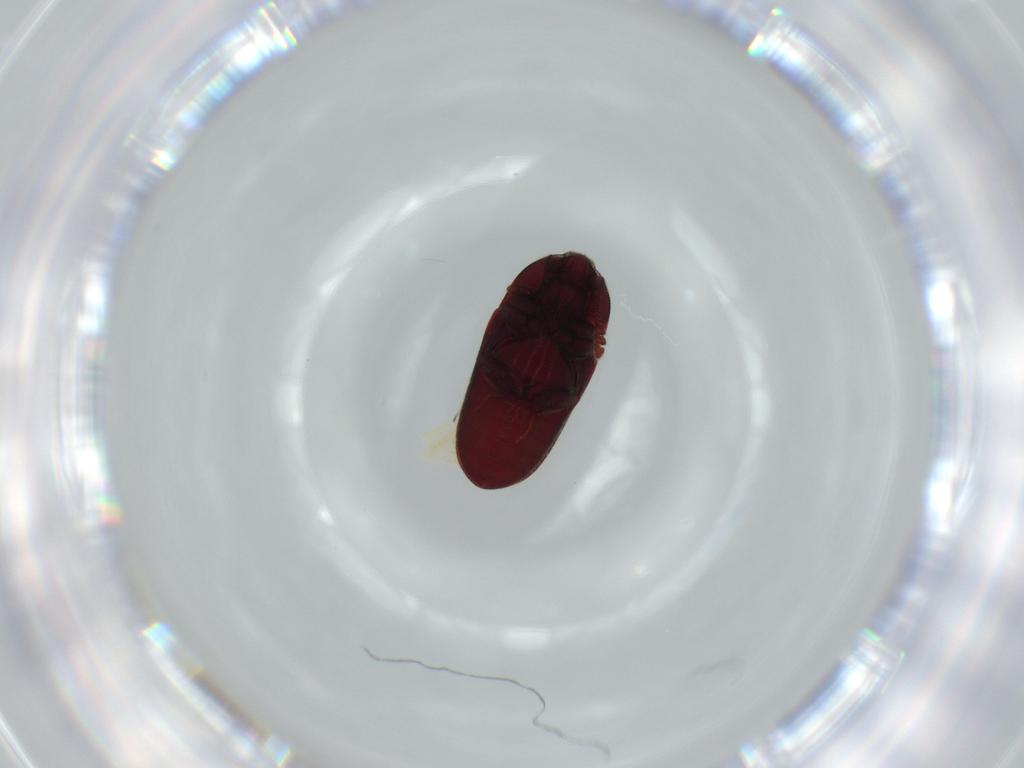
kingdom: Animalia
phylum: Arthropoda
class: Insecta
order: Coleoptera
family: Throscidae
